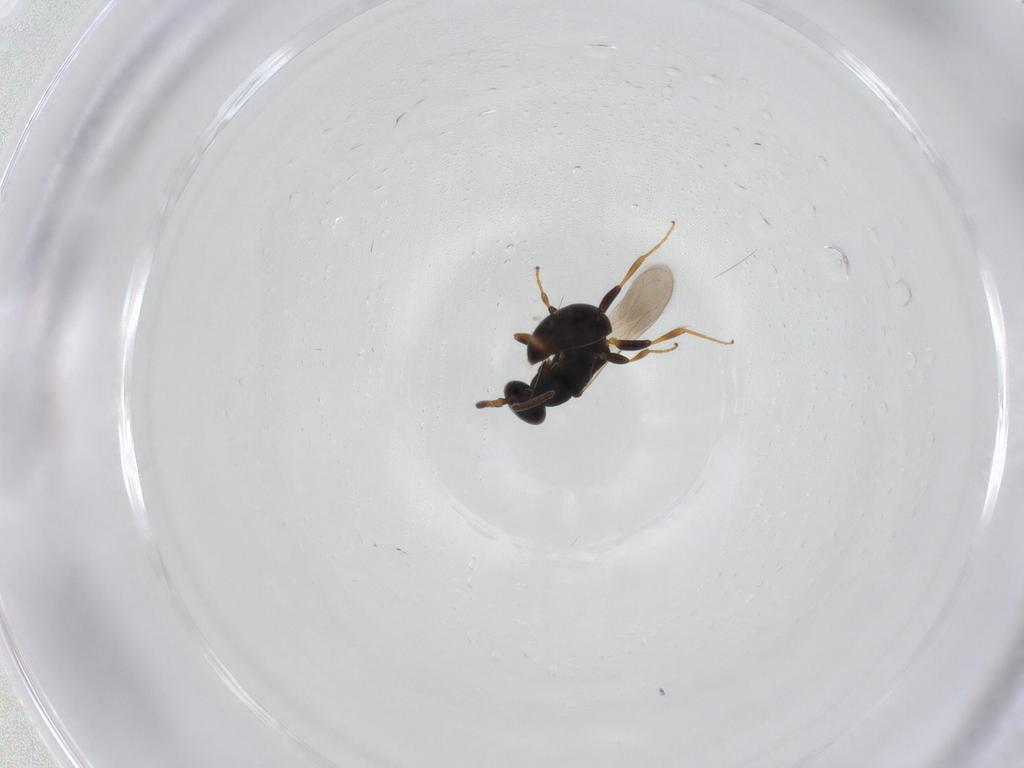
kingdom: Animalia
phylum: Arthropoda
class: Insecta
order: Hymenoptera
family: Bethylidae
